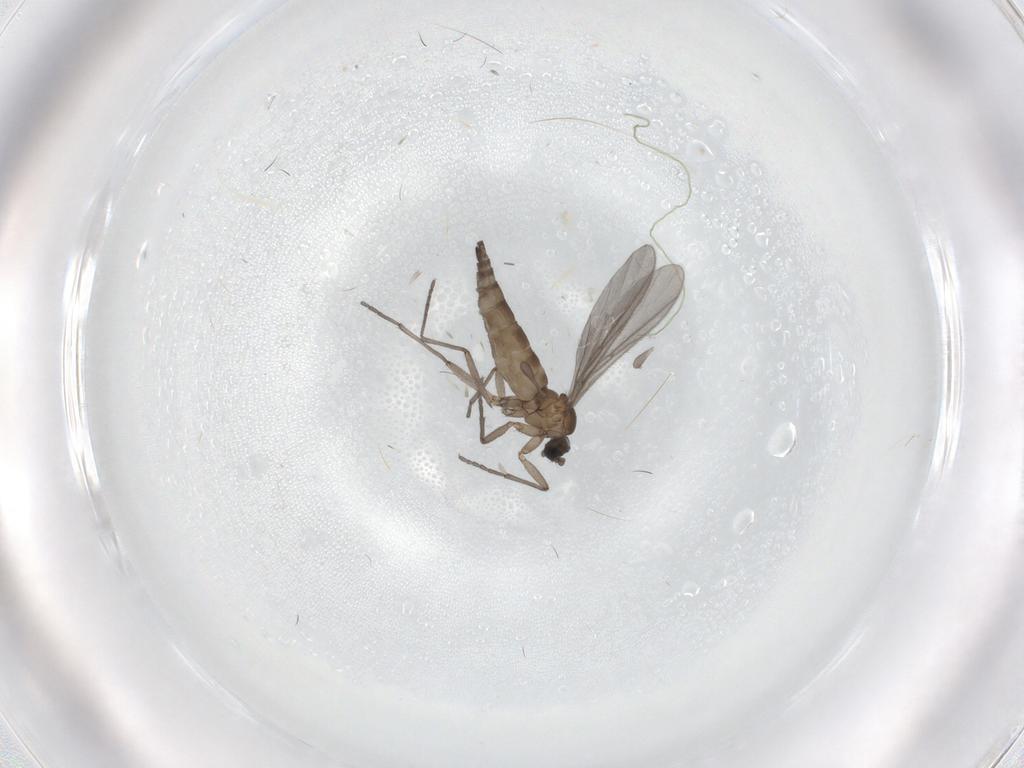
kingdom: Animalia
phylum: Arthropoda
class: Insecta
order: Diptera
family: Sciaridae
